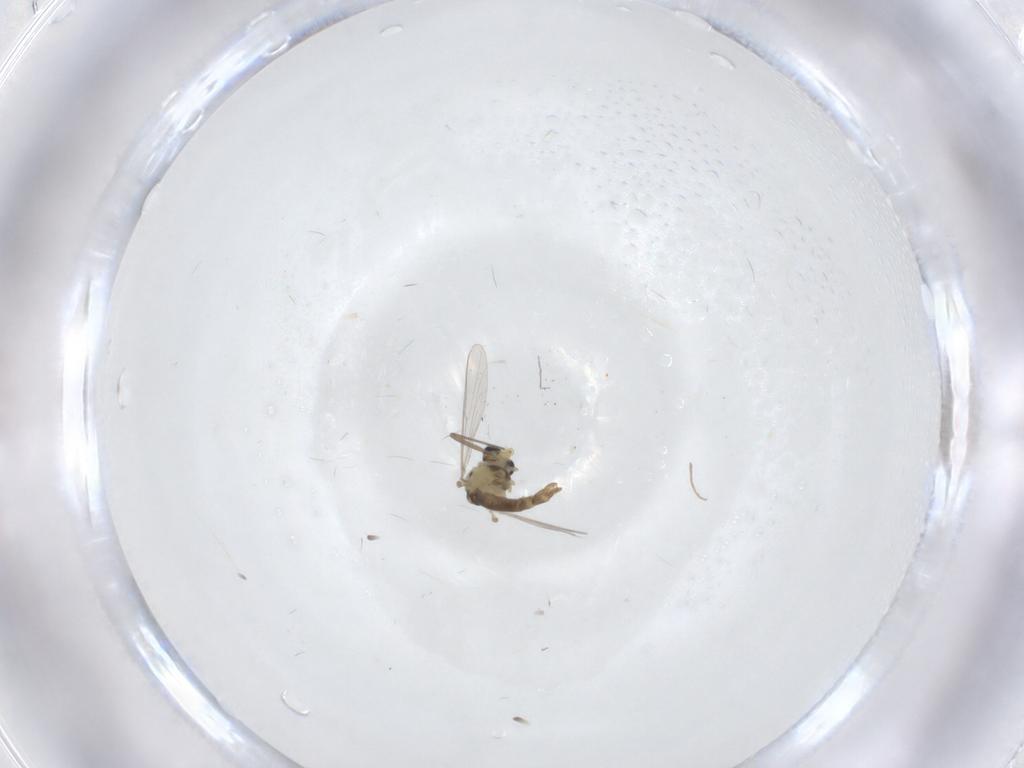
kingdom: Animalia
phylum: Arthropoda
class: Insecta
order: Diptera
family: Chironomidae
